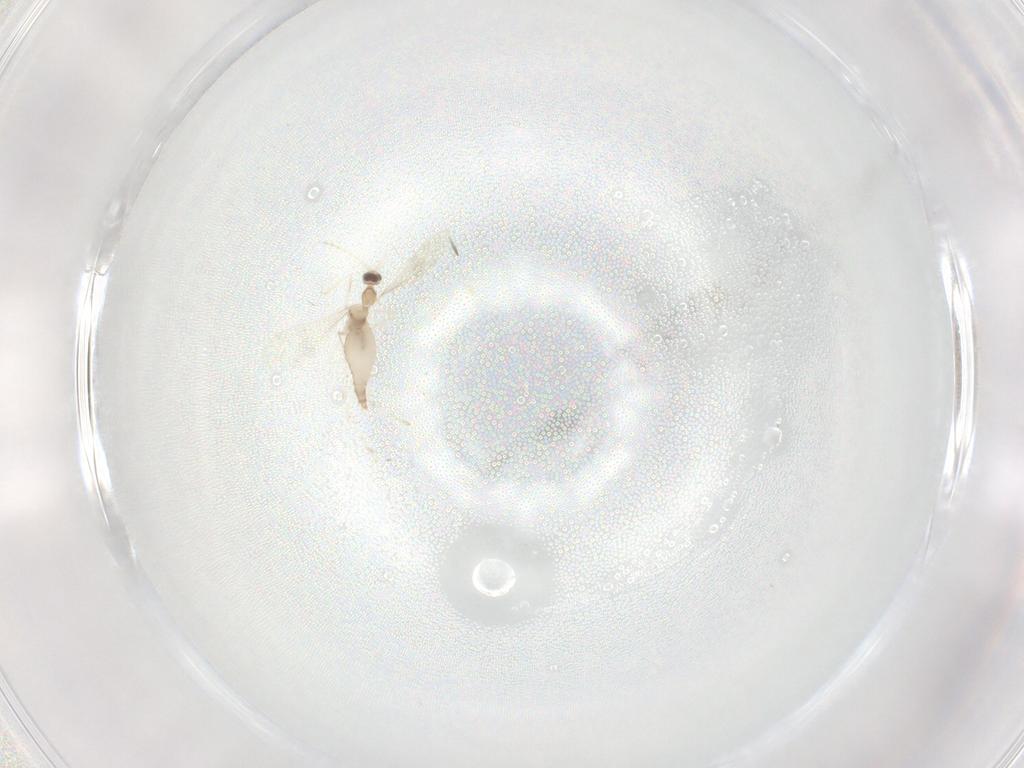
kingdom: Animalia
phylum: Arthropoda
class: Insecta
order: Diptera
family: Cecidomyiidae
